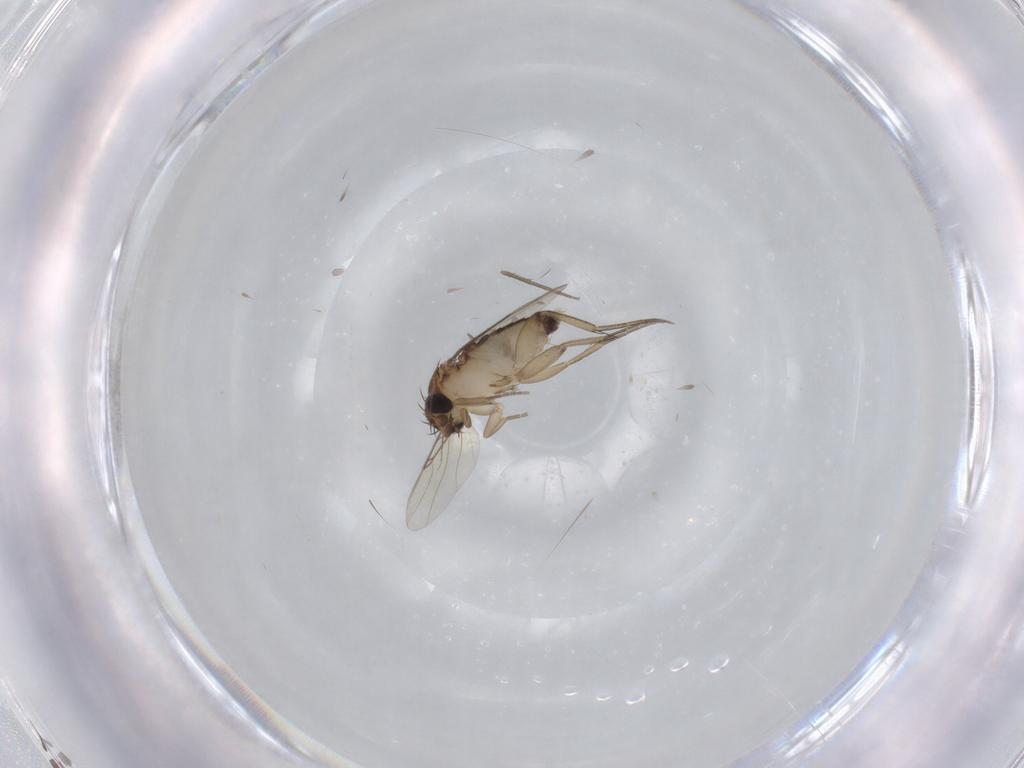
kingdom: Animalia
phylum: Arthropoda
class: Insecta
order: Diptera
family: Phoridae
